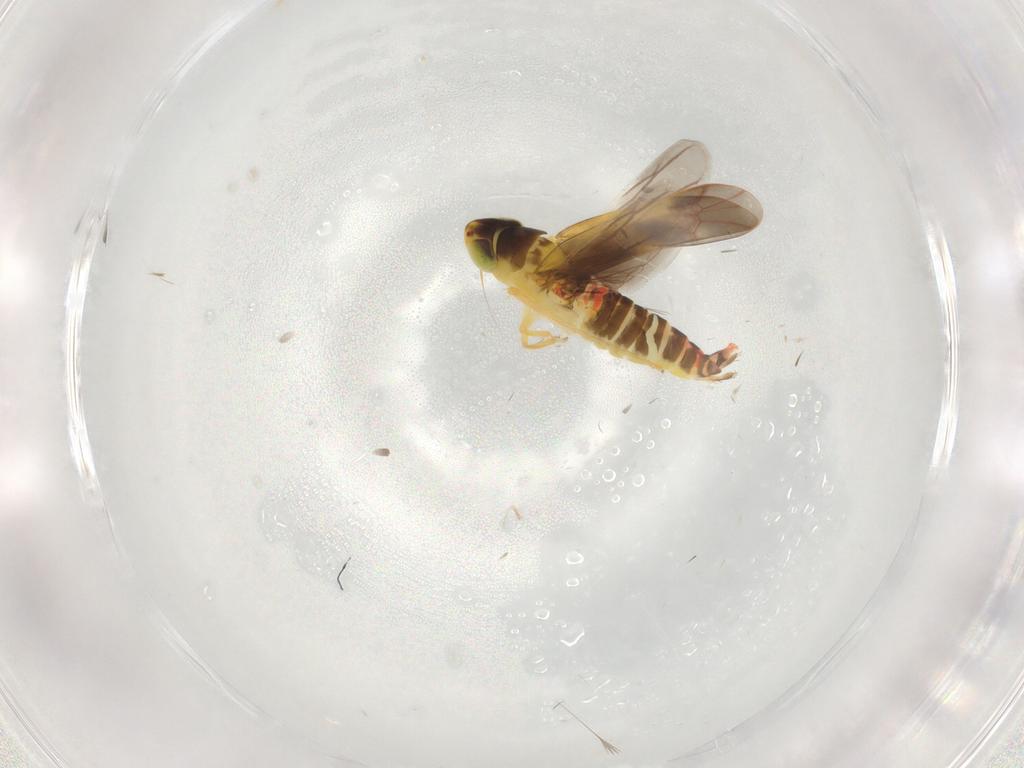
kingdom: Animalia
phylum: Arthropoda
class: Insecta
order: Hemiptera
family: Cicadellidae
